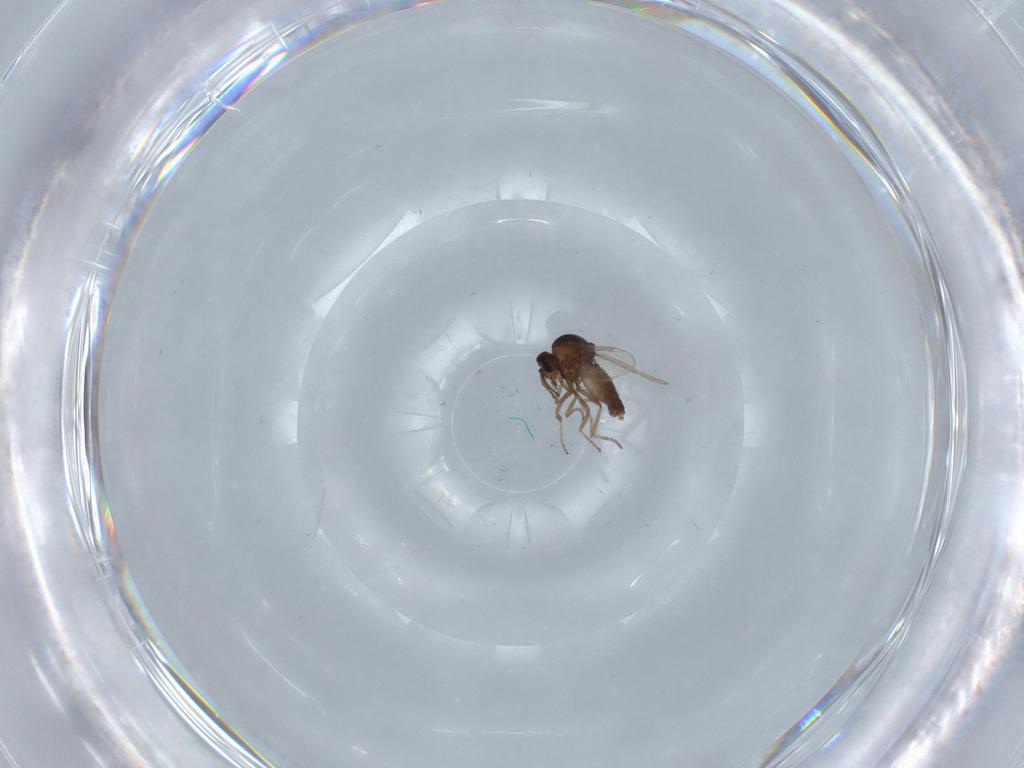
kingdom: Animalia
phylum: Arthropoda
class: Insecta
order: Diptera
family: Ceratopogonidae
